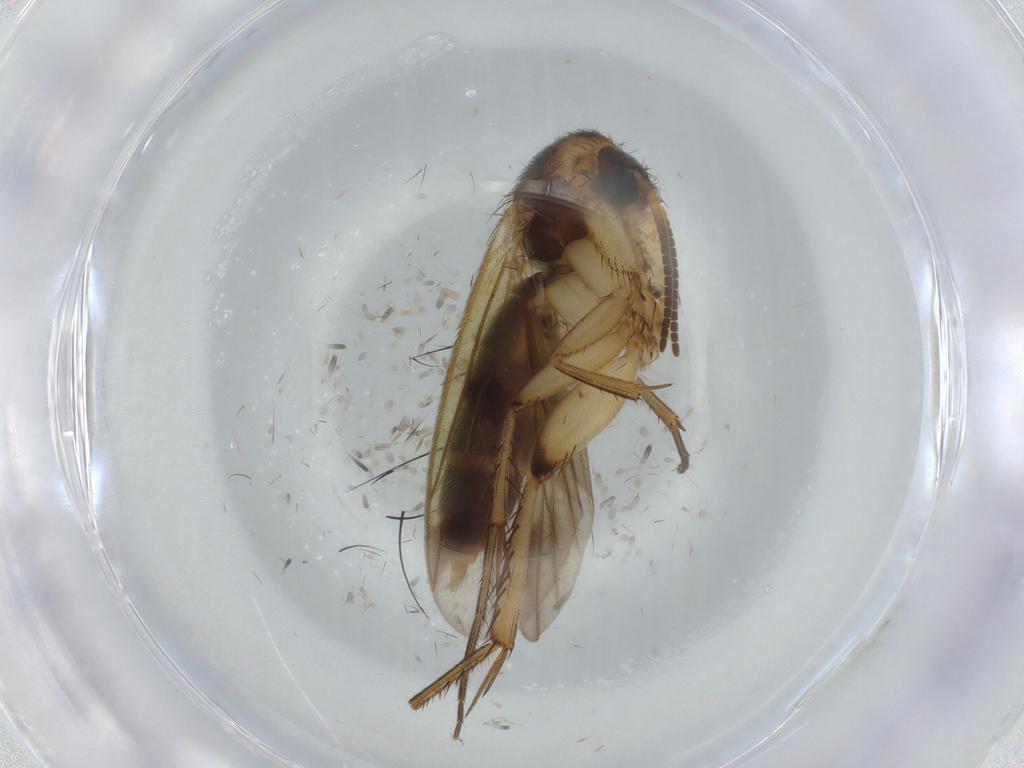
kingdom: Animalia
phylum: Arthropoda
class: Insecta
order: Diptera
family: Mycetophilidae
